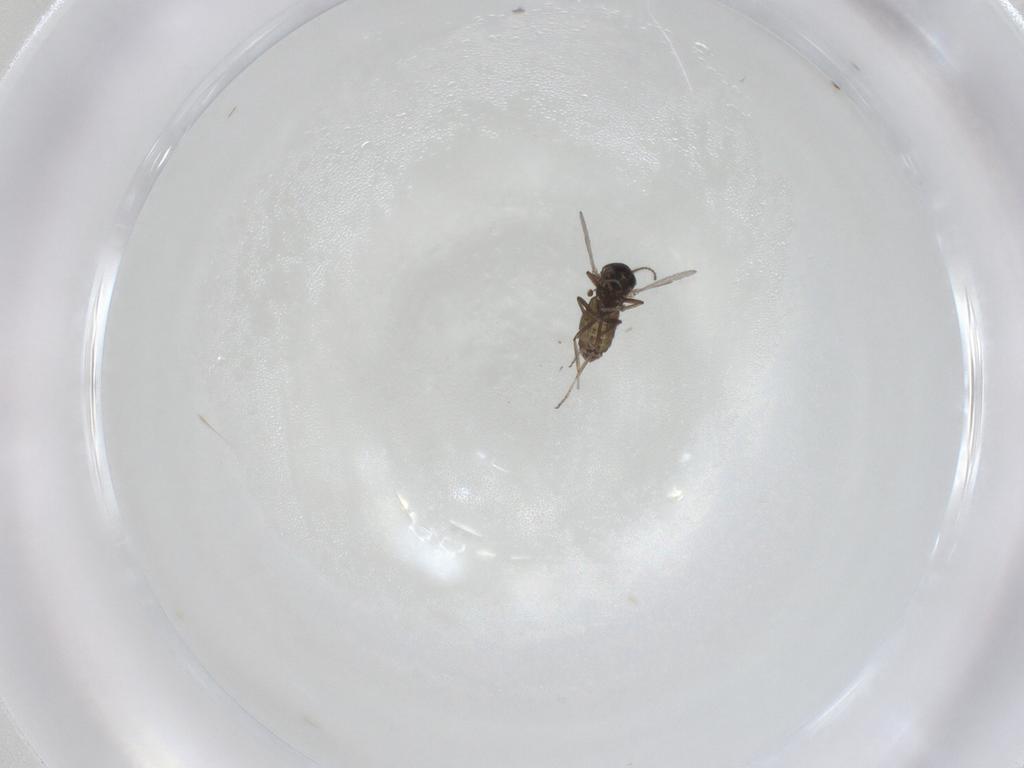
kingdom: Animalia
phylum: Arthropoda
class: Insecta
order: Diptera
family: Ceratopogonidae
